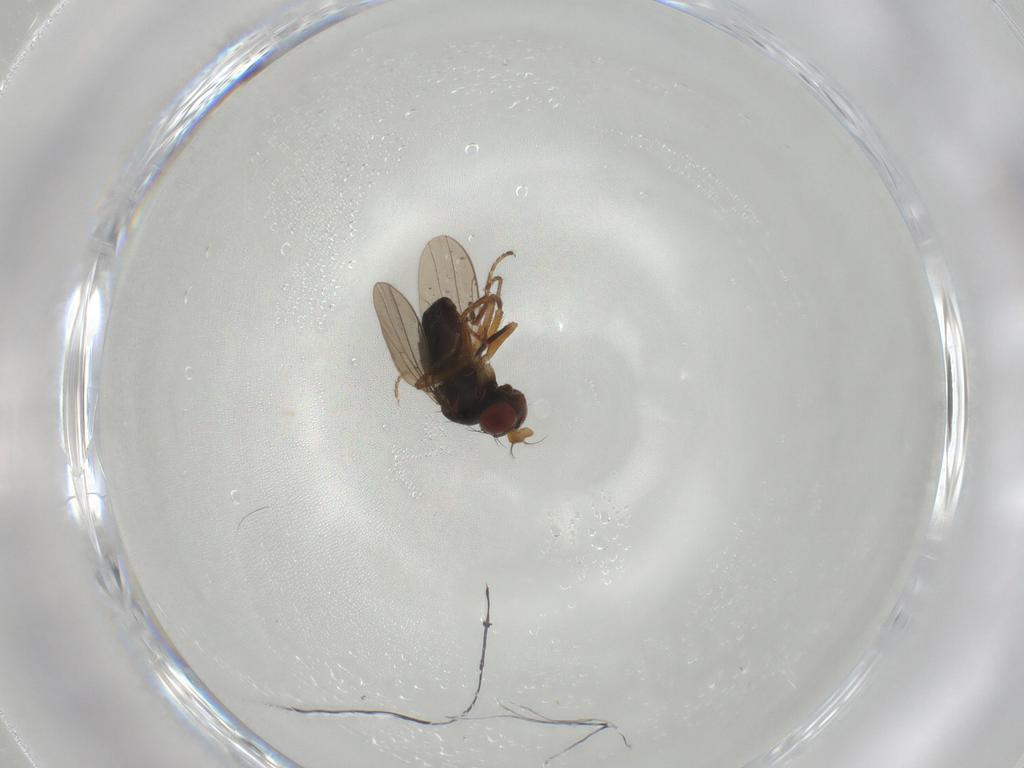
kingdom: Animalia
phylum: Arthropoda
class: Insecta
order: Diptera
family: Ephydridae
